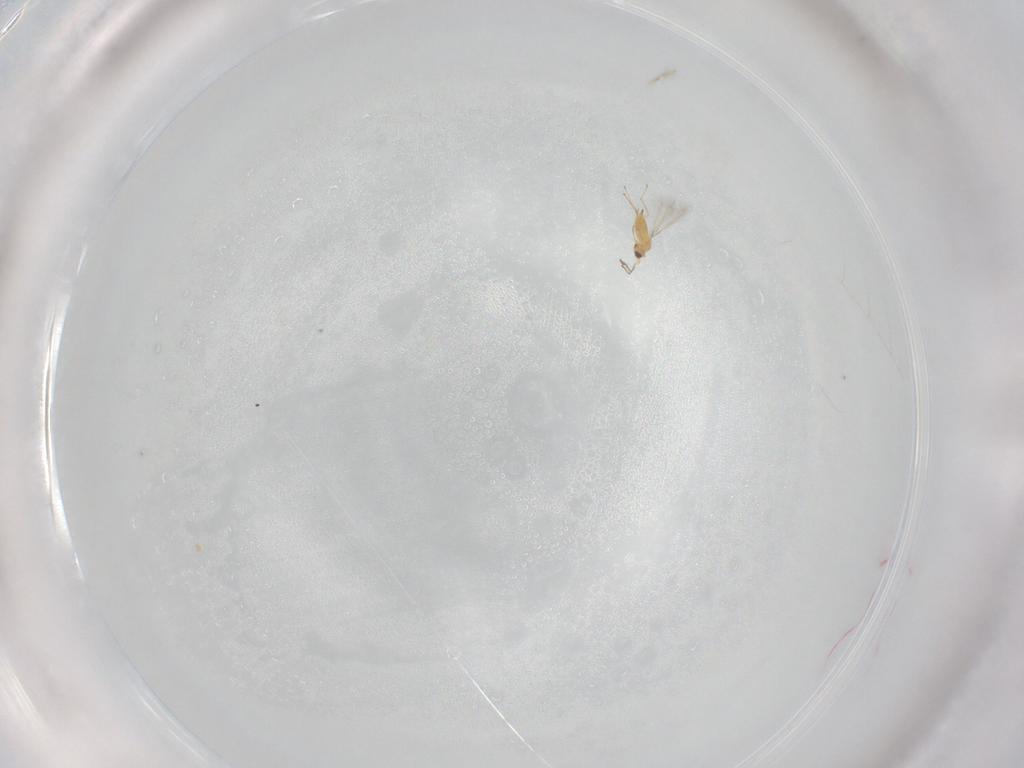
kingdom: Animalia
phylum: Arthropoda
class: Insecta
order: Hymenoptera
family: Mymaridae
